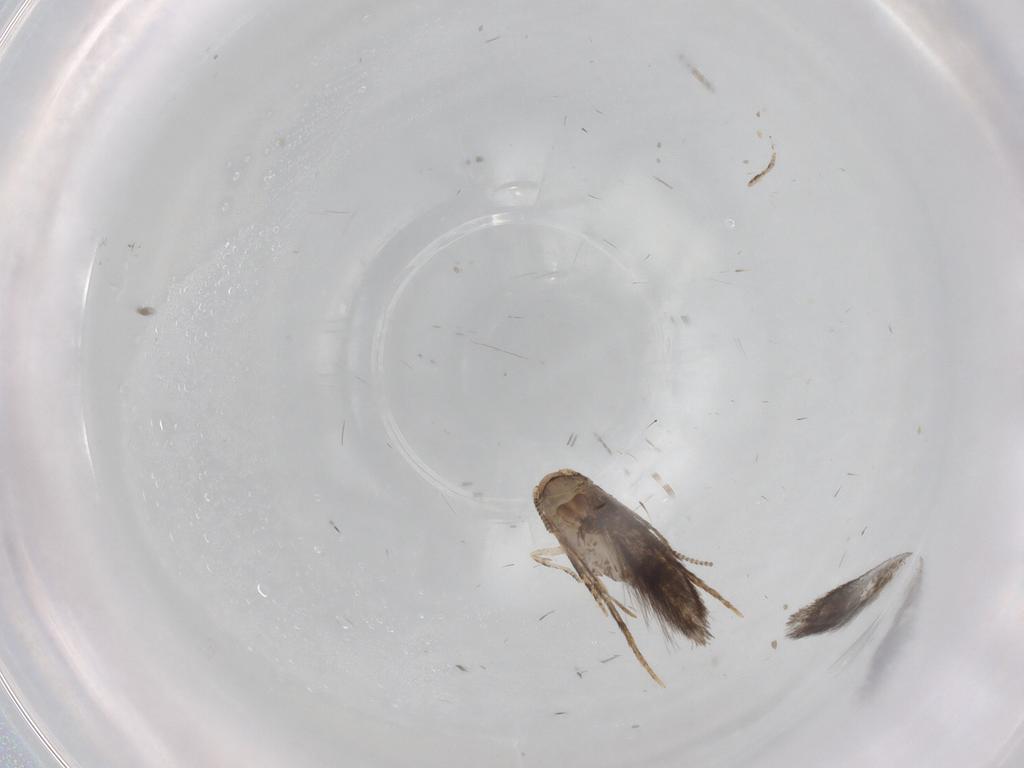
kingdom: Animalia
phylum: Arthropoda
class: Insecta
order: Lepidoptera
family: Meessiidae
